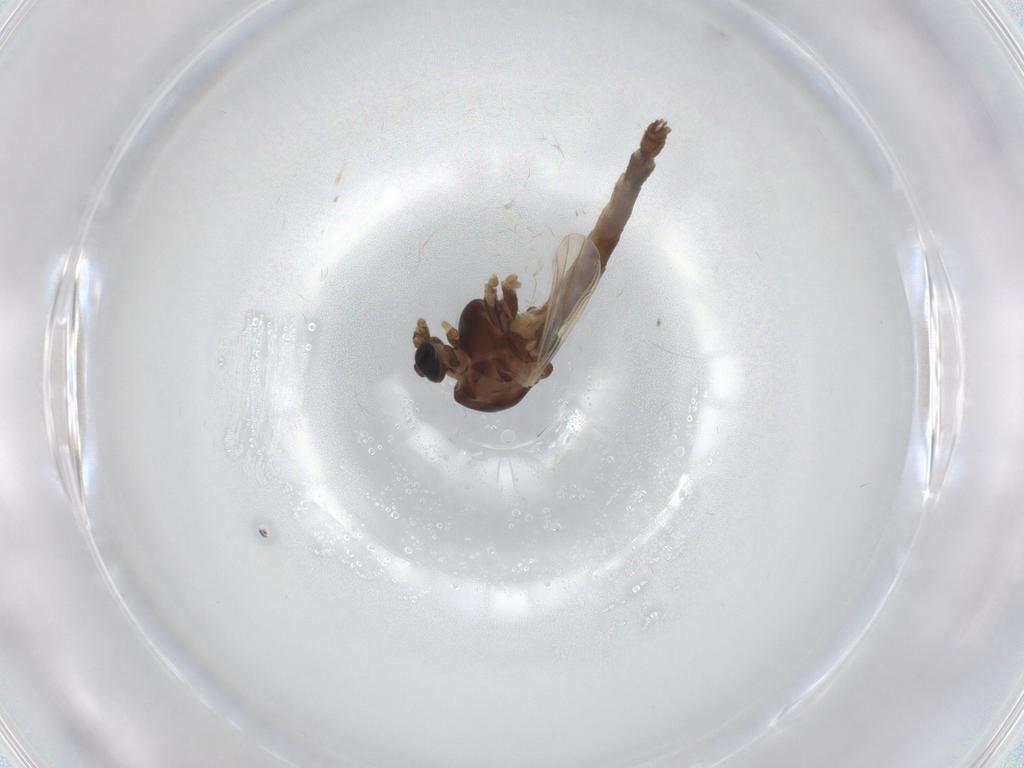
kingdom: Animalia
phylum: Arthropoda
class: Insecta
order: Diptera
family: Chironomidae
